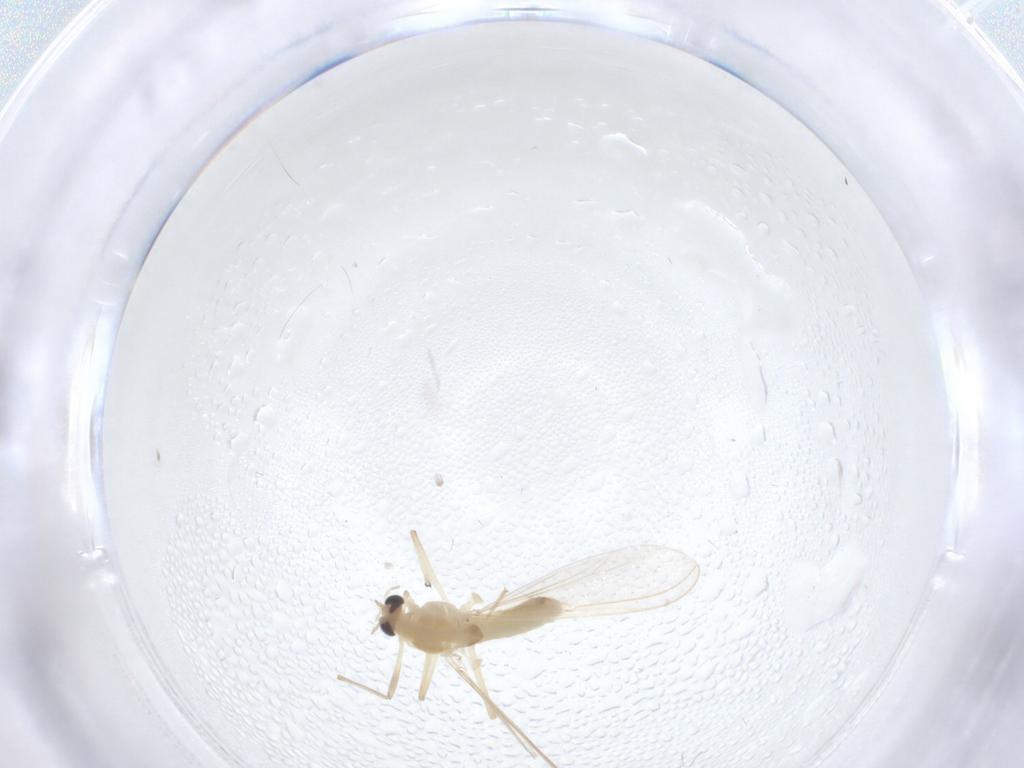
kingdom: Animalia
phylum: Arthropoda
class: Insecta
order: Diptera
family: Chironomidae
